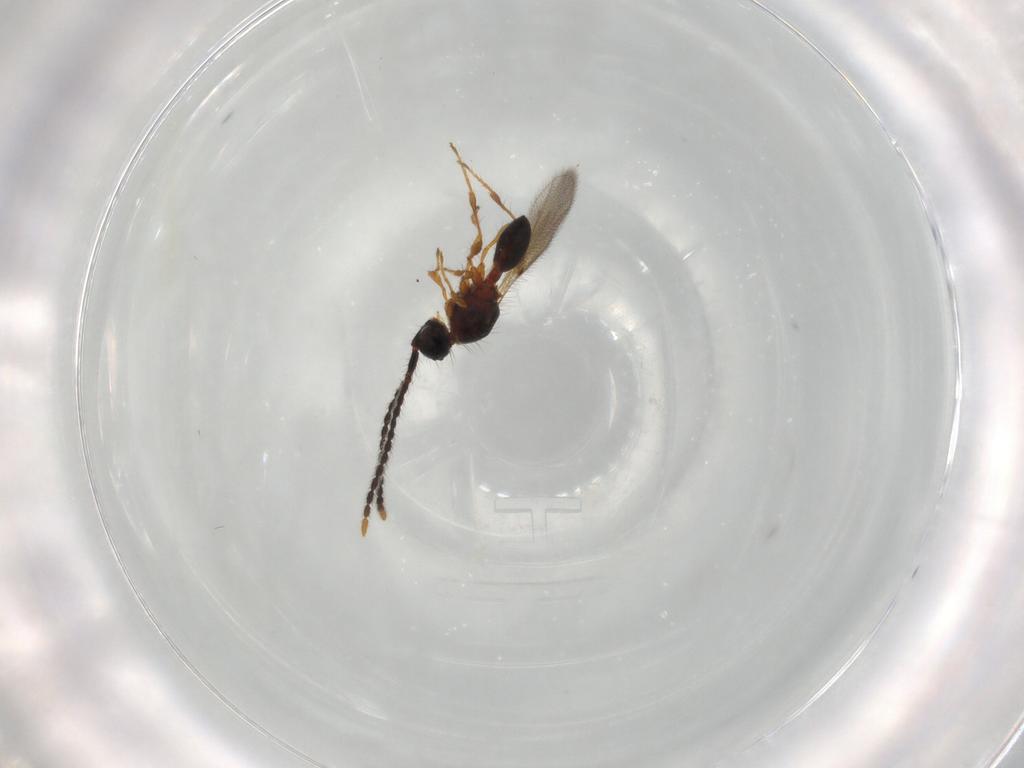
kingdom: Animalia
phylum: Arthropoda
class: Insecta
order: Hymenoptera
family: Diapriidae
